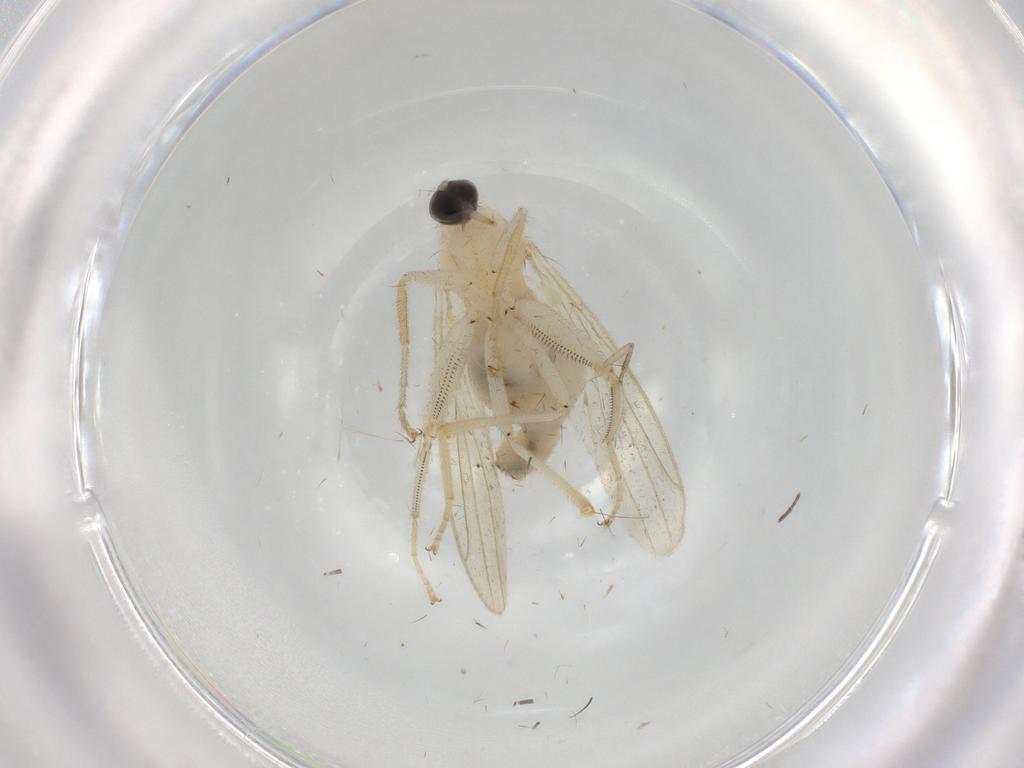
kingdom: Animalia
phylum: Arthropoda
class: Insecta
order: Diptera
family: Hybotidae
